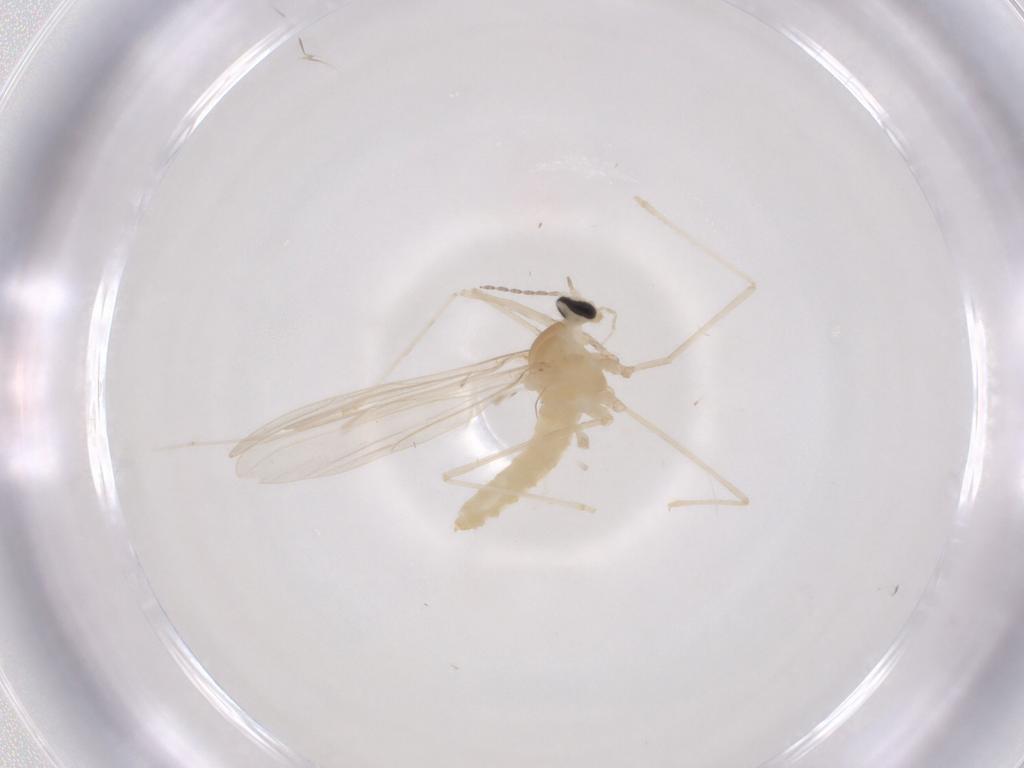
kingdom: Animalia
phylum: Arthropoda
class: Insecta
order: Diptera
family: Cecidomyiidae
